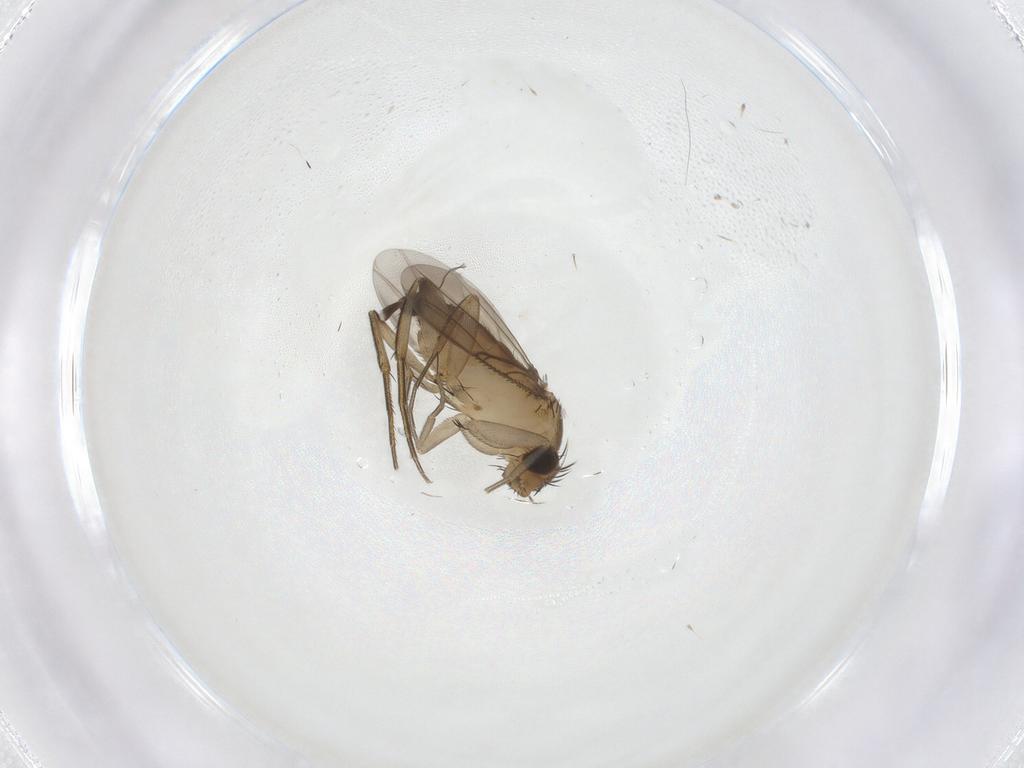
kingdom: Animalia
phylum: Arthropoda
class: Insecta
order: Diptera
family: Phoridae
